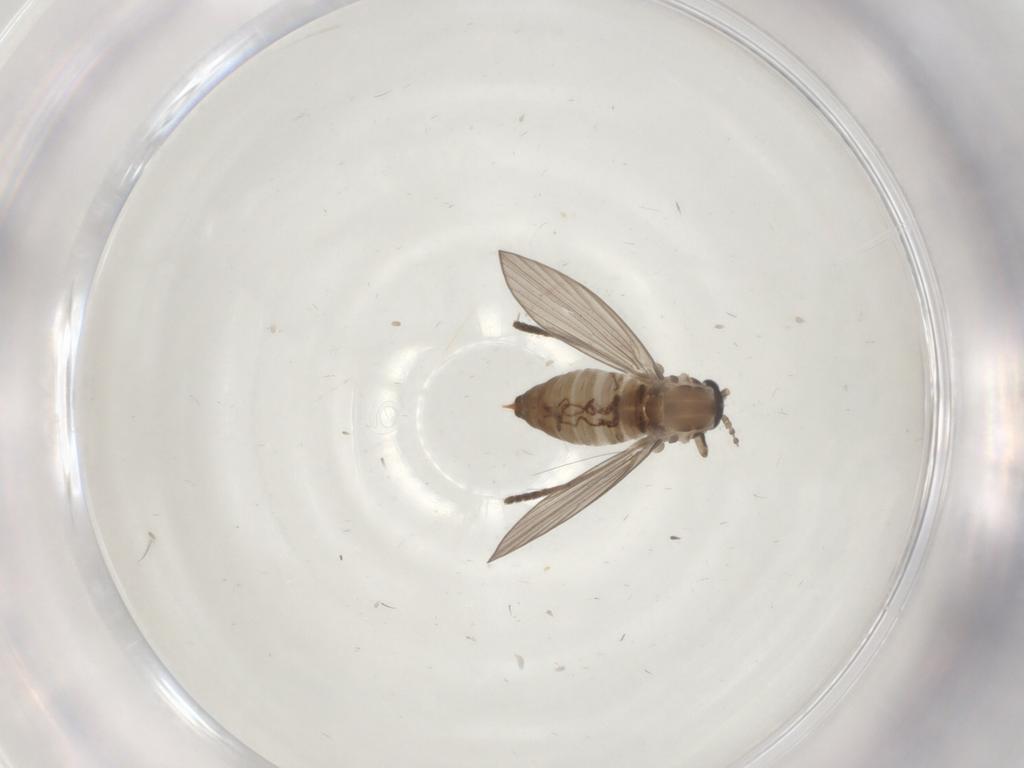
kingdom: Animalia
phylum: Arthropoda
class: Insecta
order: Diptera
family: Psychodidae
